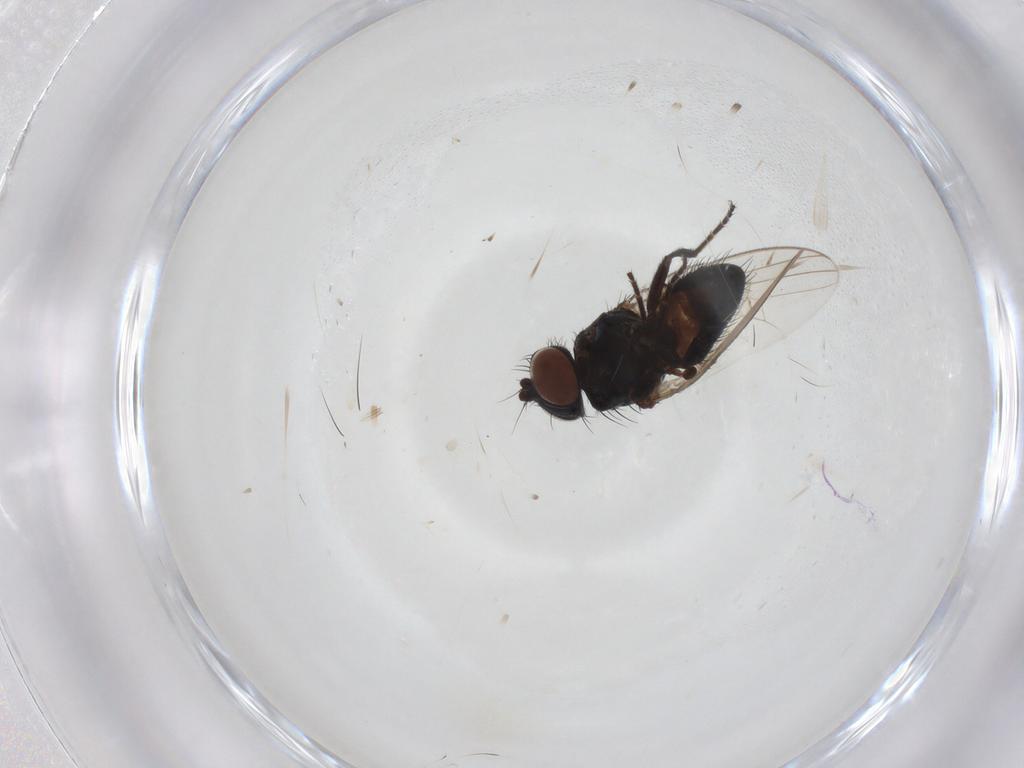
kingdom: Animalia
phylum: Arthropoda
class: Insecta
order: Diptera
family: Chloropidae
